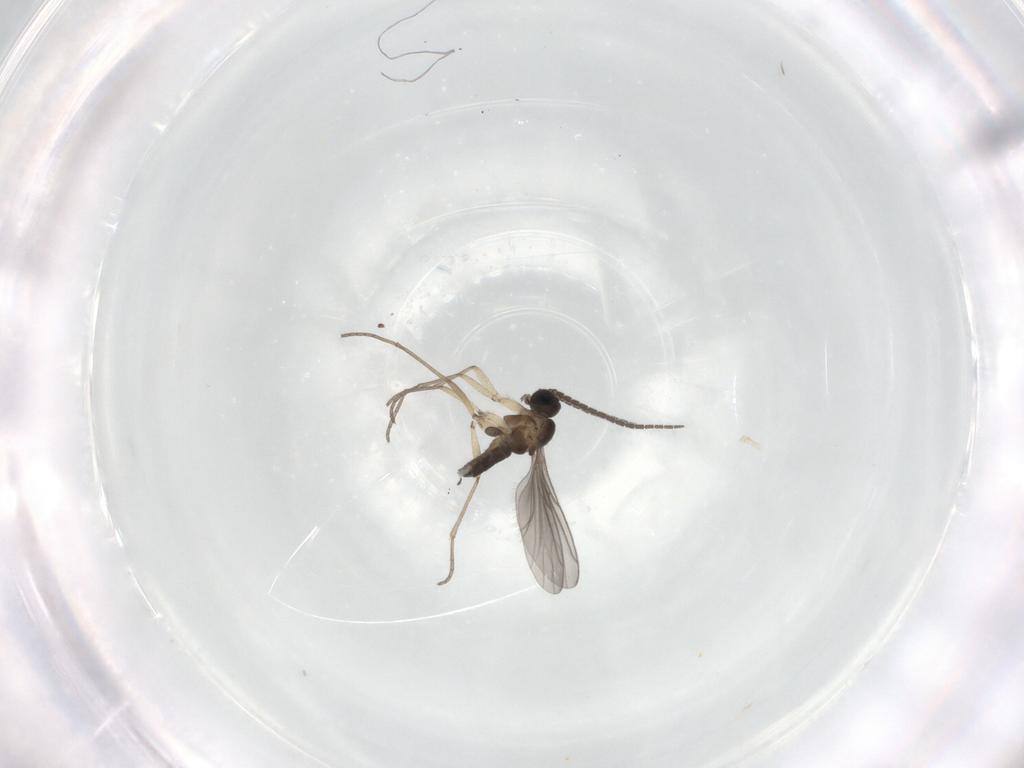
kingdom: Animalia
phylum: Arthropoda
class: Insecta
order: Diptera
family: Sciaridae
